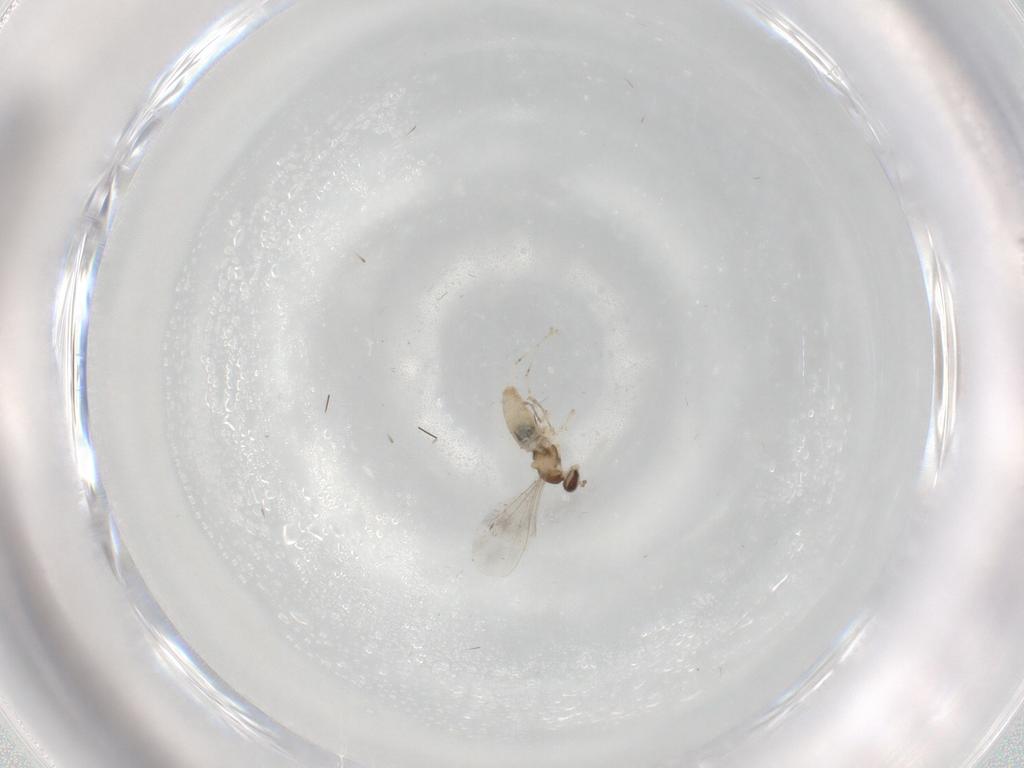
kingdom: Animalia
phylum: Arthropoda
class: Insecta
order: Diptera
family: Cecidomyiidae
